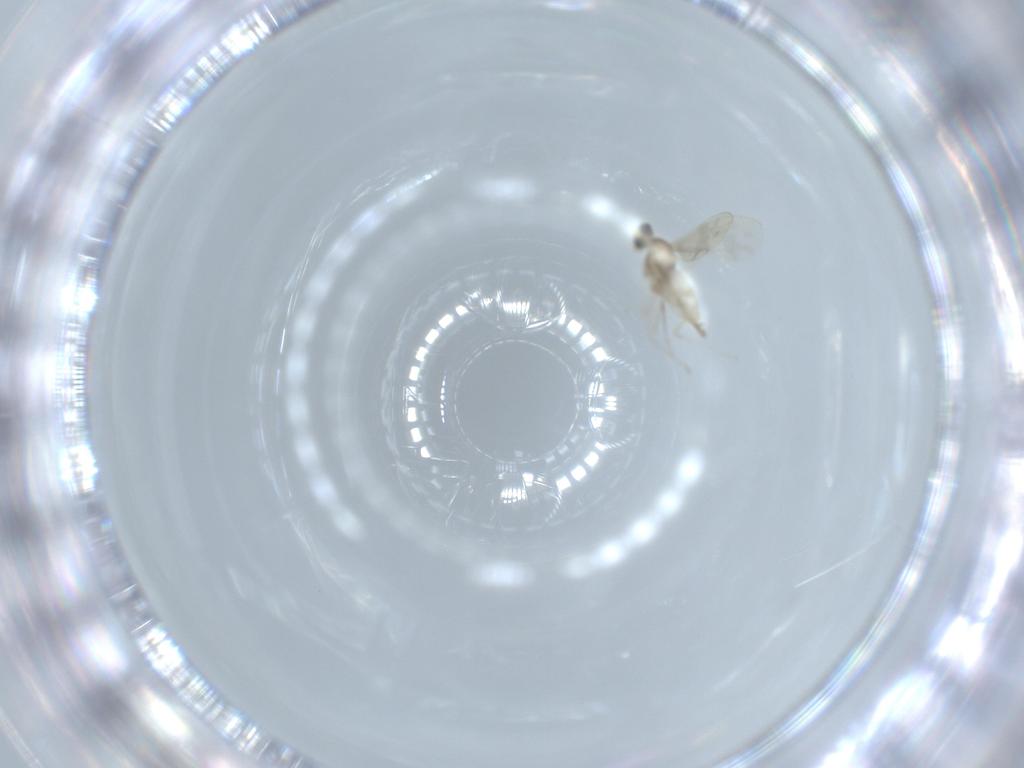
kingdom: Animalia
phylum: Arthropoda
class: Insecta
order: Diptera
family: Cecidomyiidae
